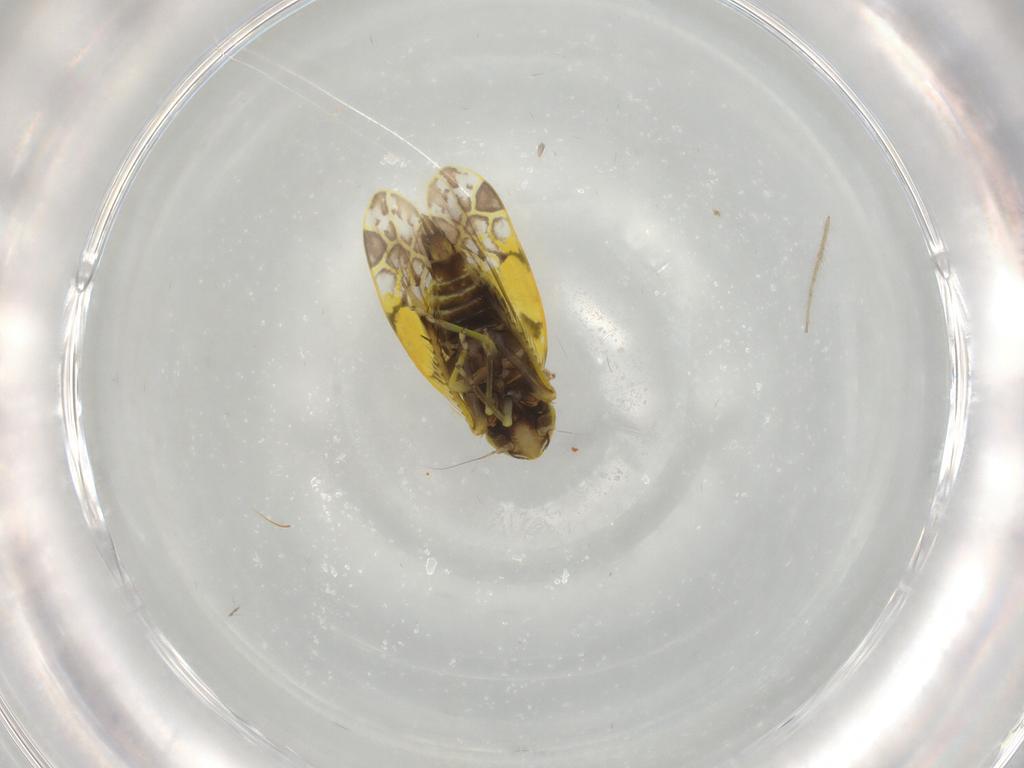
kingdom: Animalia
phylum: Arthropoda
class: Insecta
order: Hemiptera
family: Cicadellidae
